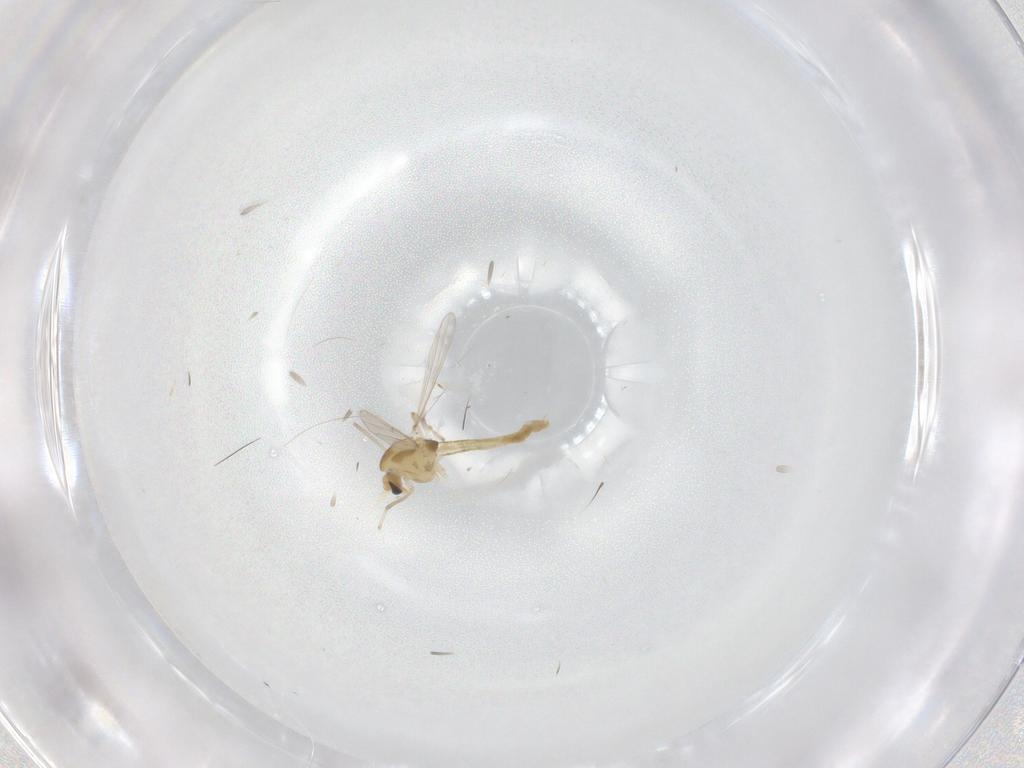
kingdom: Animalia
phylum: Arthropoda
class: Insecta
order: Diptera
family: Chironomidae
